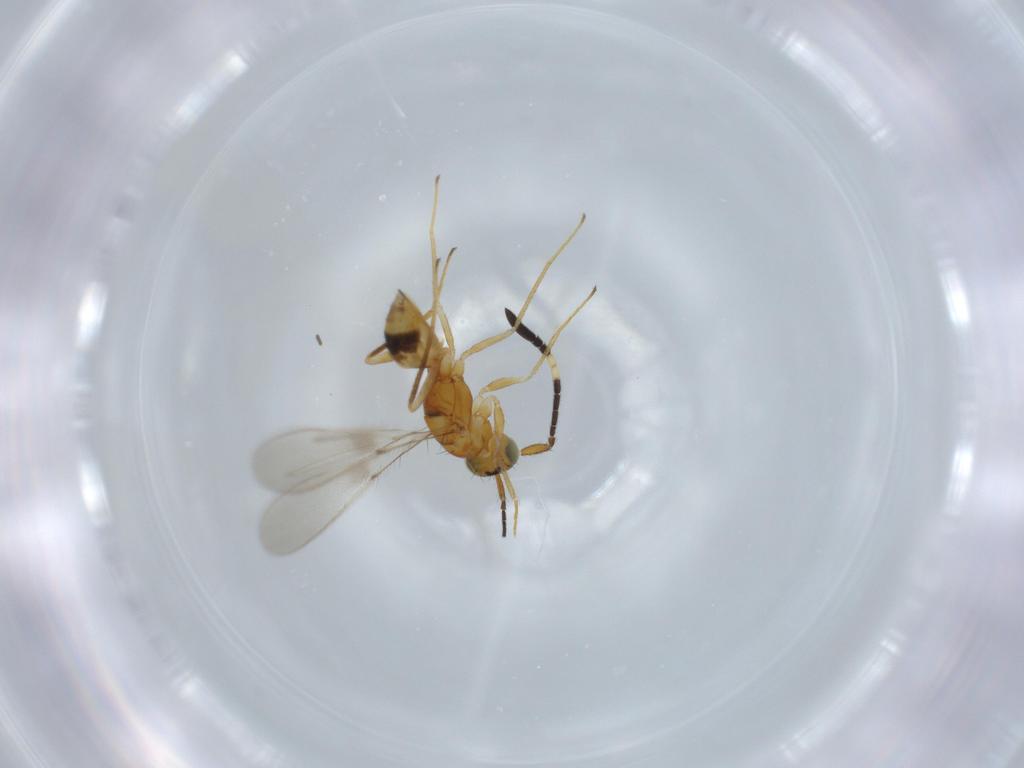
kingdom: Animalia
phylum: Arthropoda
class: Insecta
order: Hymenoptera
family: Mymaridae
